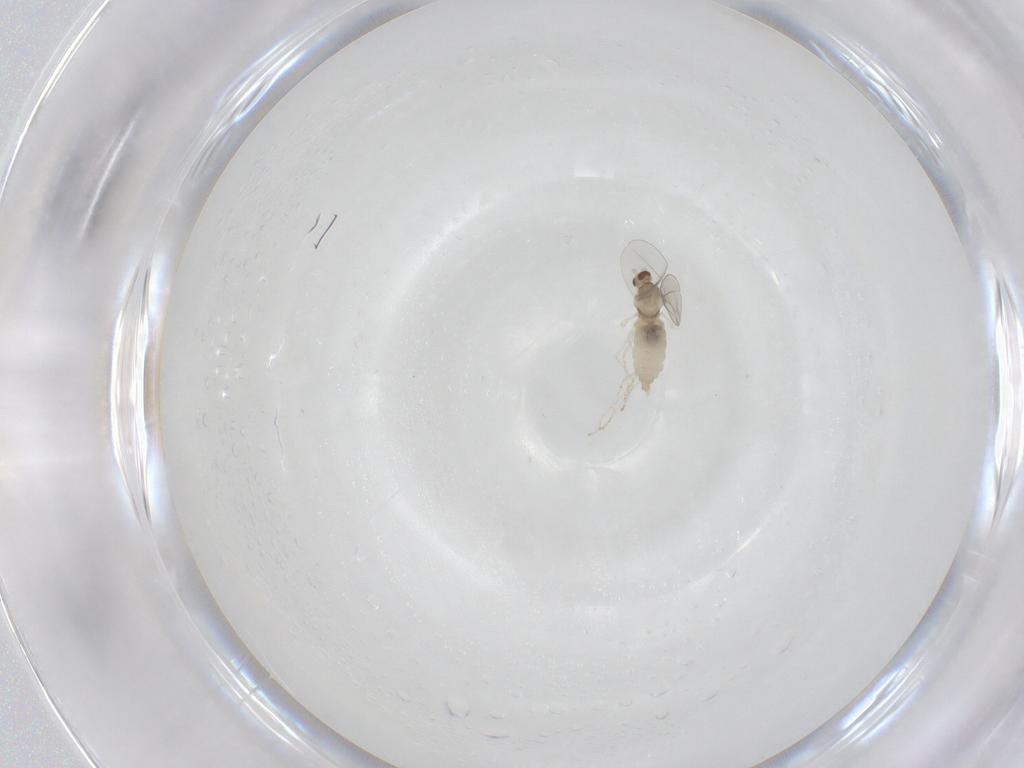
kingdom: Animalia
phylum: Arthropoda
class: Insecta
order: Diptera
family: Cecidomyiidae
